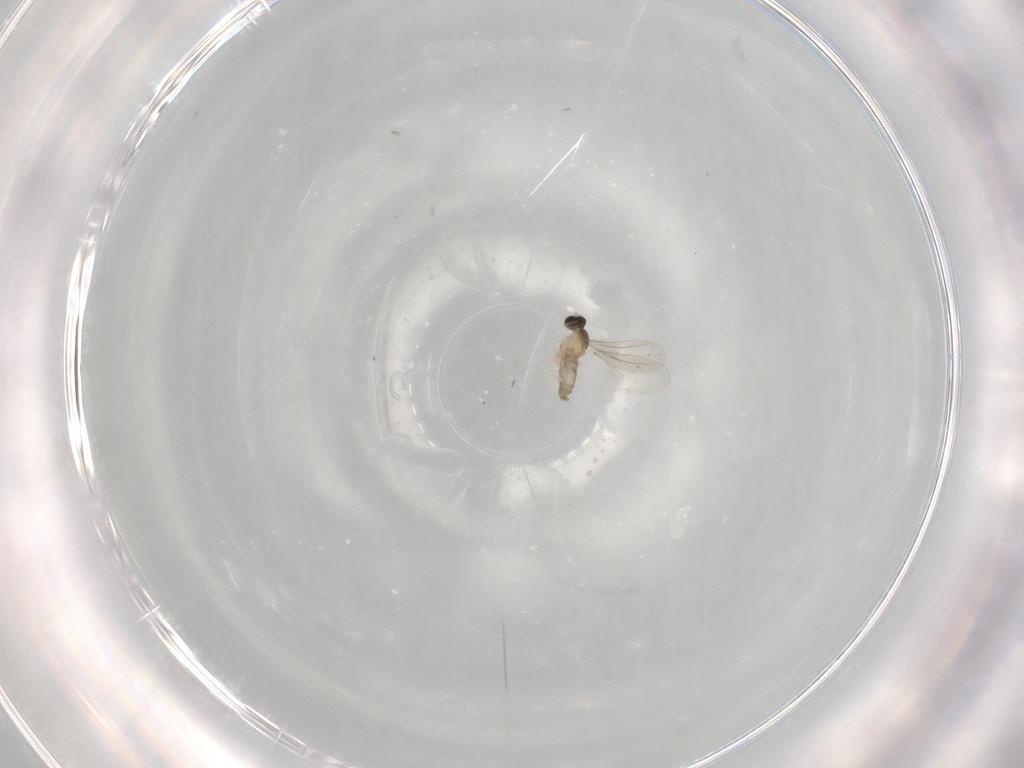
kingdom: Animalia
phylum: Arthropoda
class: Insecta
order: Diptera
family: Cecidomyiidae
